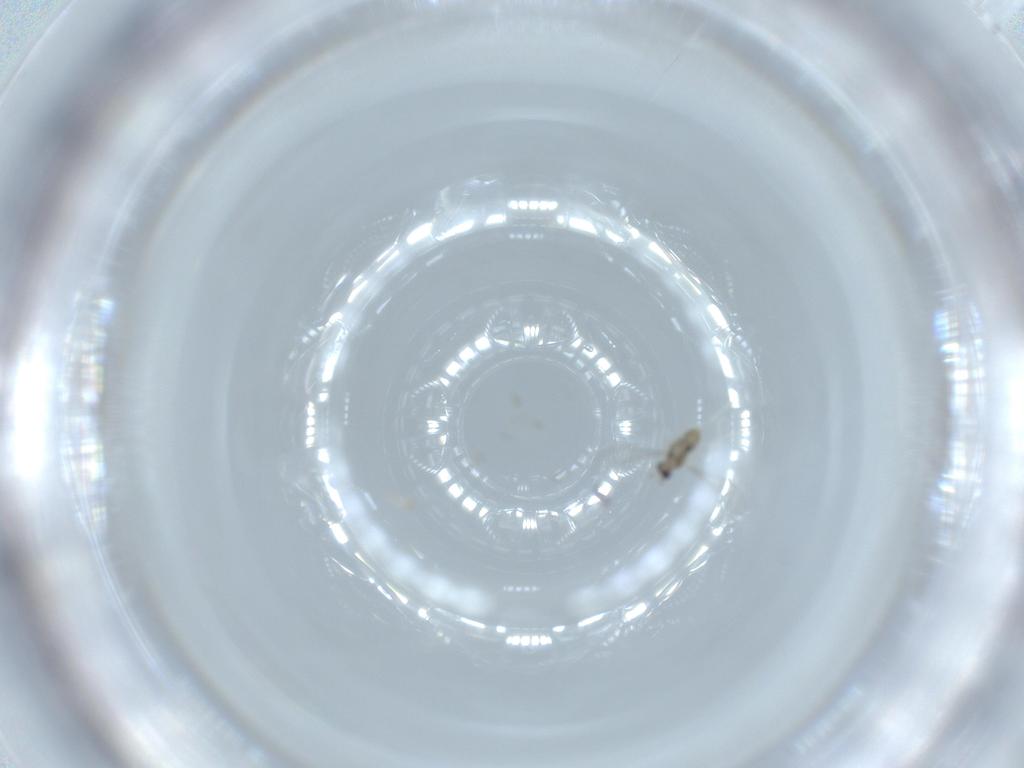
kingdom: Animalia
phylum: Arthropoda
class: Insecta
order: Diptera
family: Cecidomyiidae
